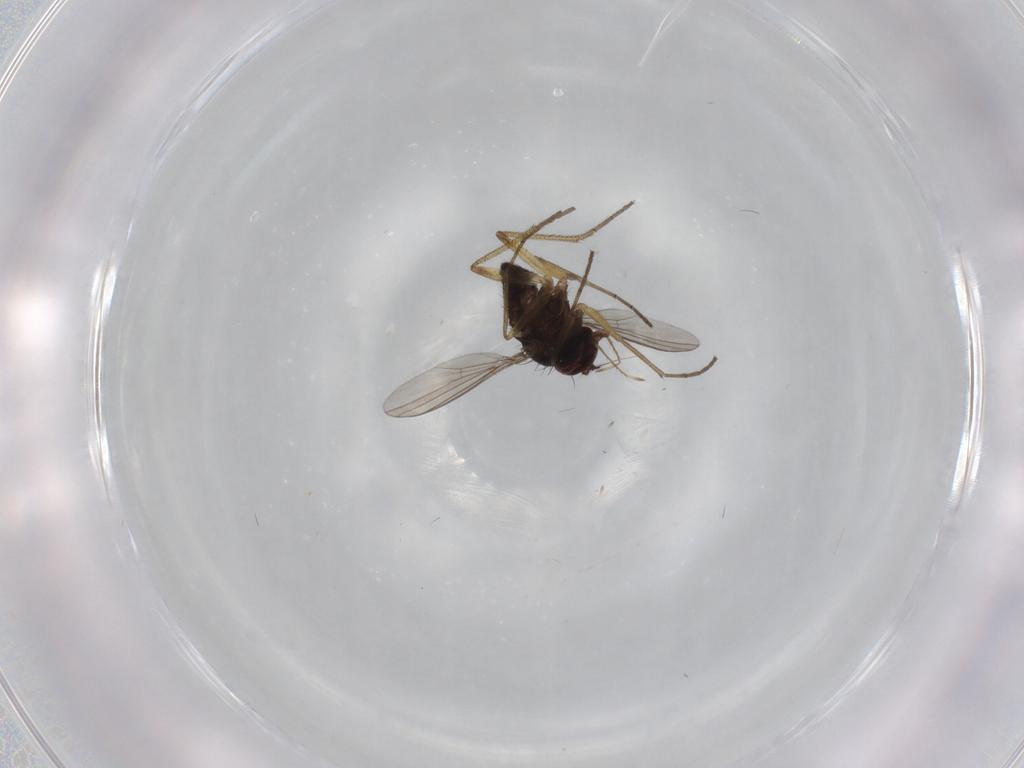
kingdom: Animalia
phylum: Arthropoda
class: Insecta
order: Diptera
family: Dolichopodidae
